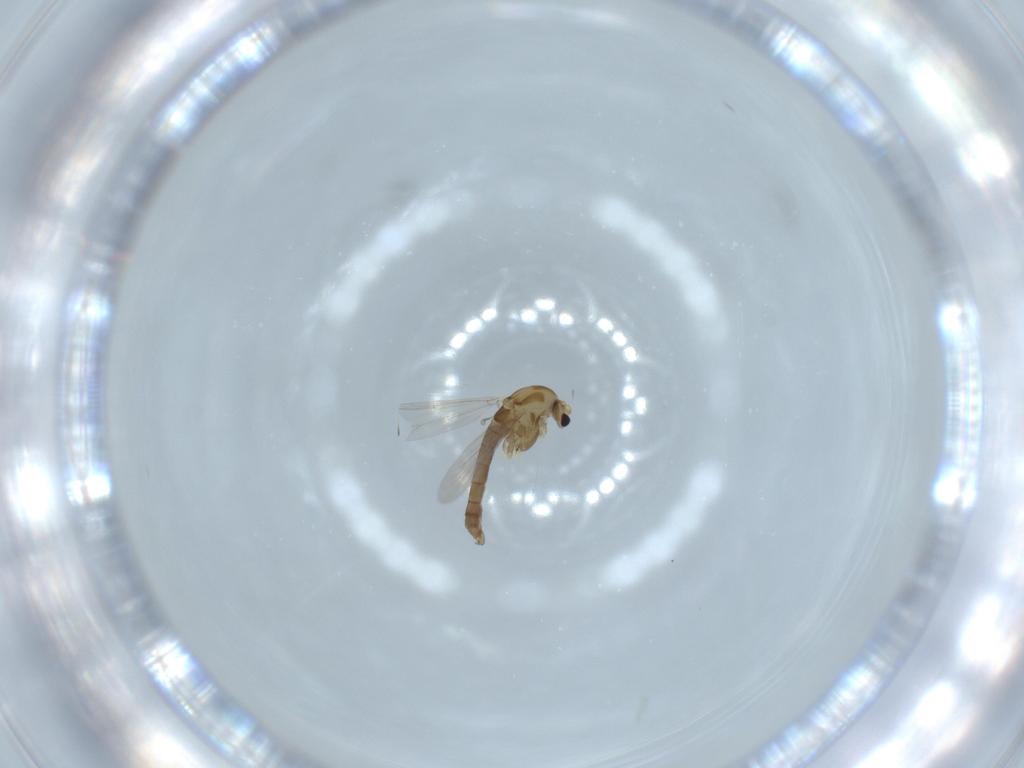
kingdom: Animalia
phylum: Arthropoda
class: Insecta
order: Diptera
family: Chironomidae
